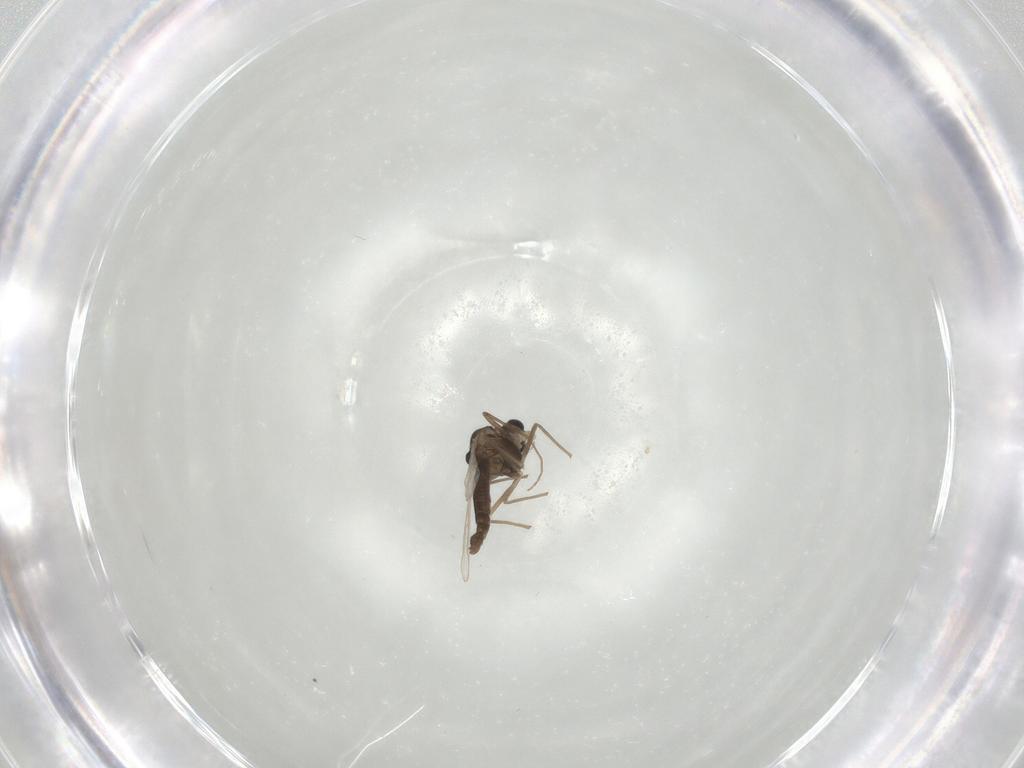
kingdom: Animalia
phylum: Arthropoda
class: Insecta
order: Diptera
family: Chironomidae
